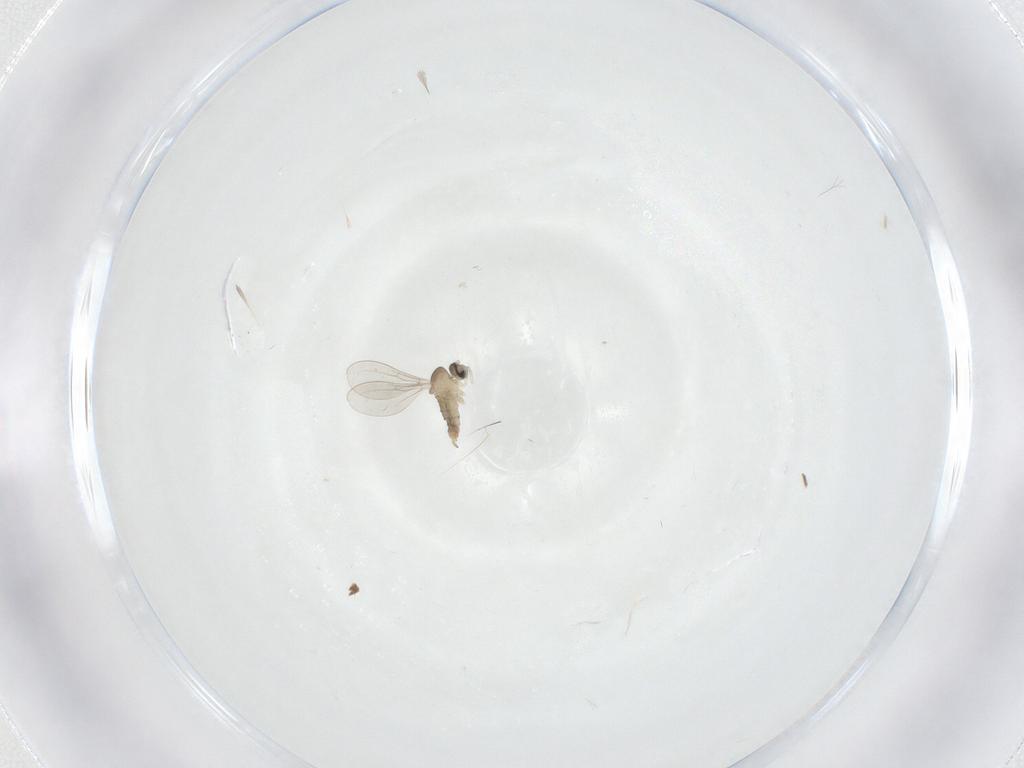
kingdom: Animalia
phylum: Arthropoda
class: Insecta
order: Diptera
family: Cecidomyiidae
